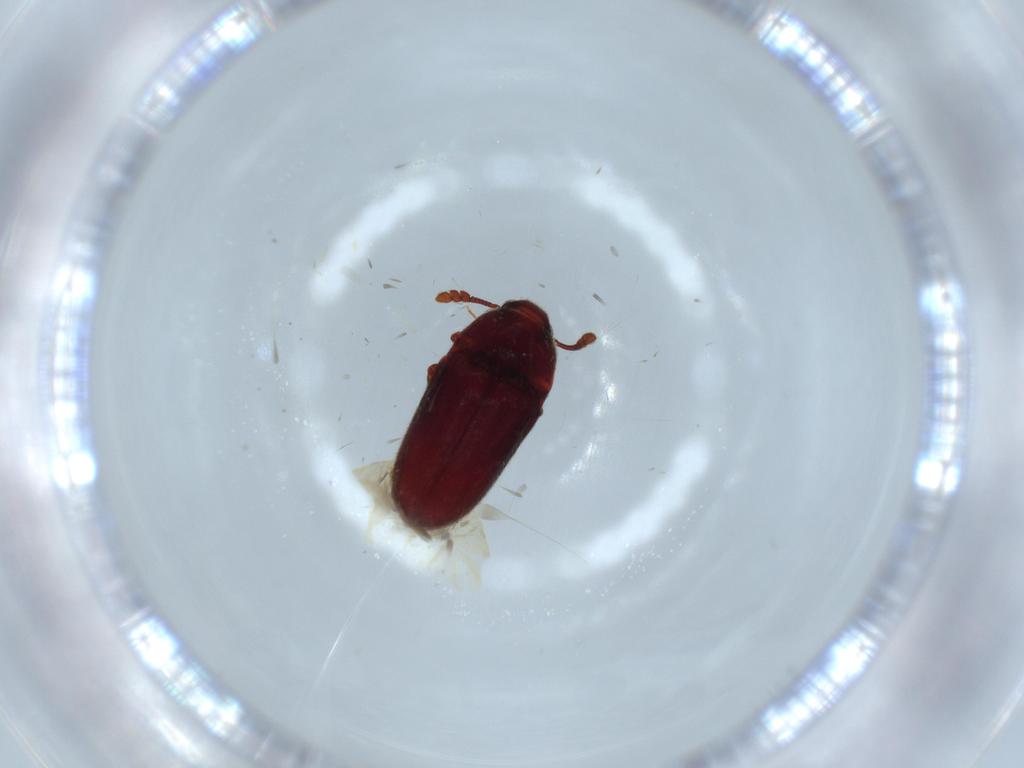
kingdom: Animalia
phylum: Arthropoda
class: Insecta
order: Coleoptera
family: Throscidae
